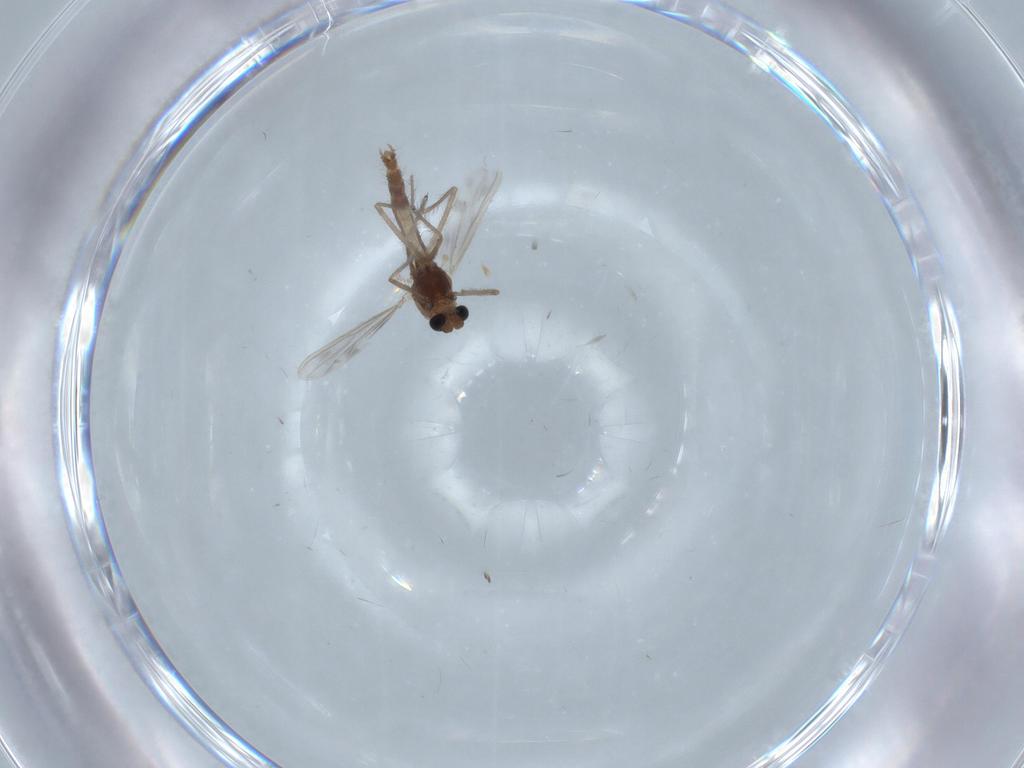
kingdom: Animalia
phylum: Arthropoda
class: Insecta
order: Diptera
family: Chironomidae
